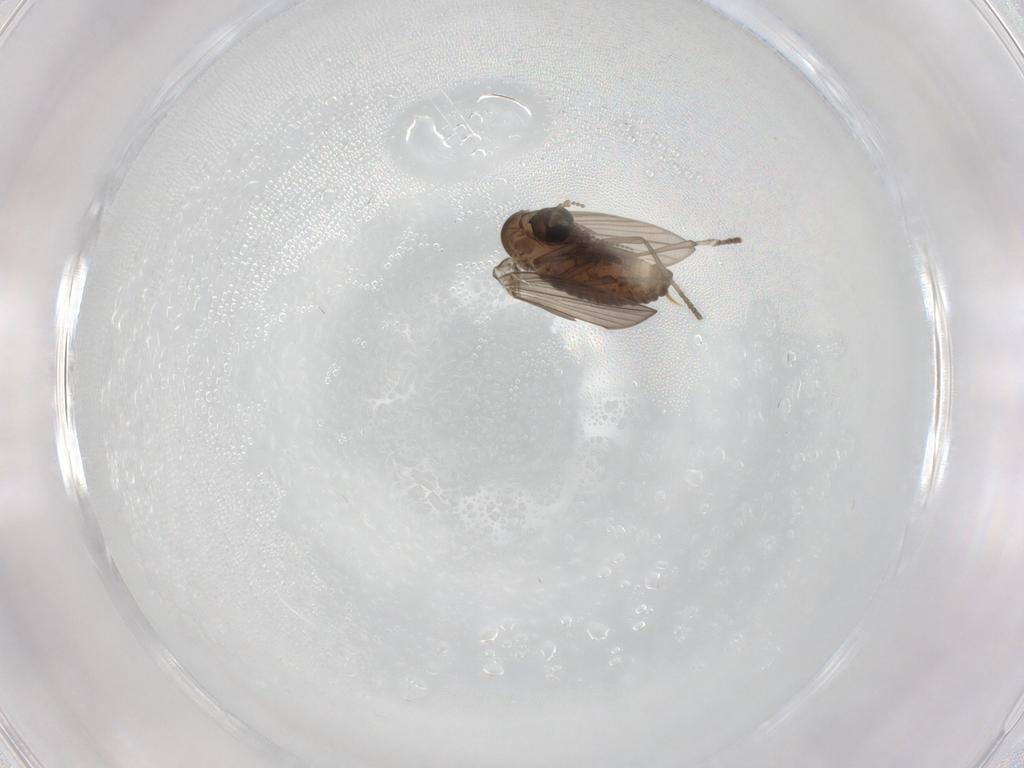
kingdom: Animalia
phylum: Arthropoda
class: Insecta
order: Diptera
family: Psychodidae
